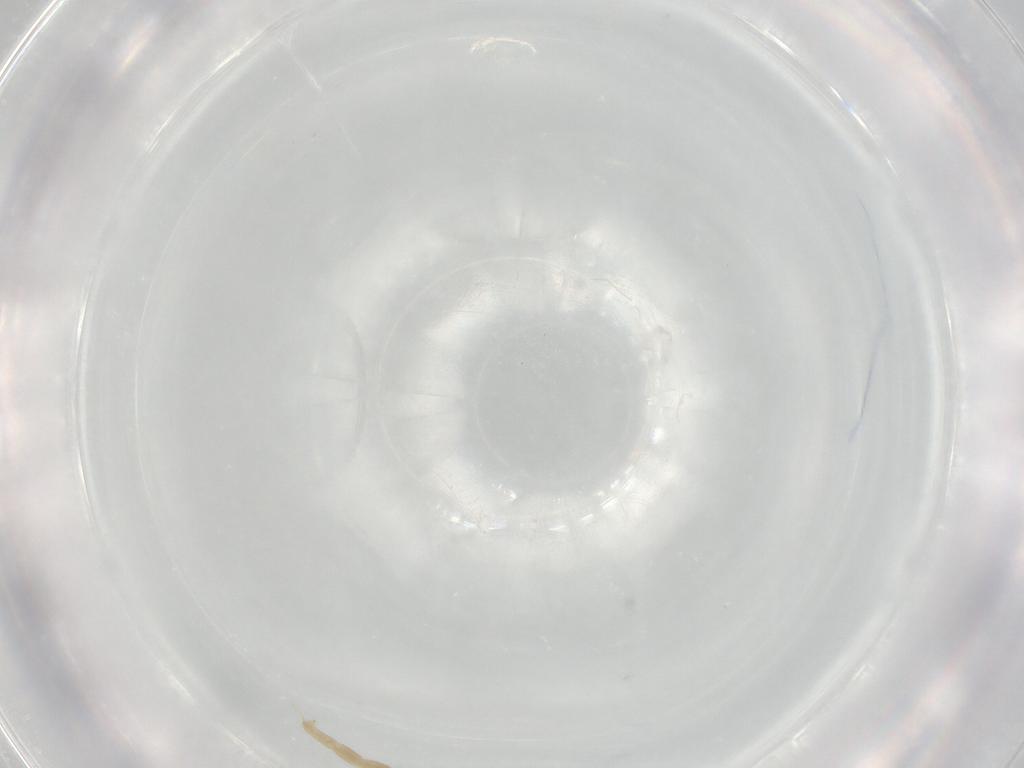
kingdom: Animalia
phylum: Arthropoda
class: Insecta
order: Diptera
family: Chironomidae
